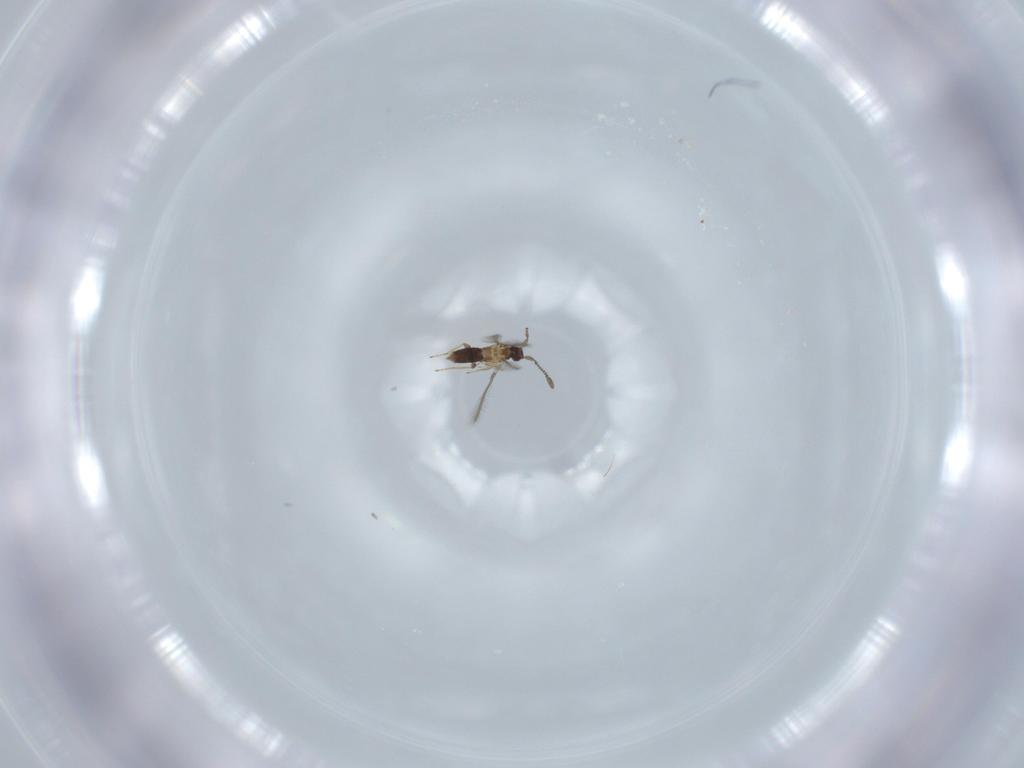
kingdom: Animalia
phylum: Arthropoda
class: Insecta
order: Hymenoptera
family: Mymaridae
